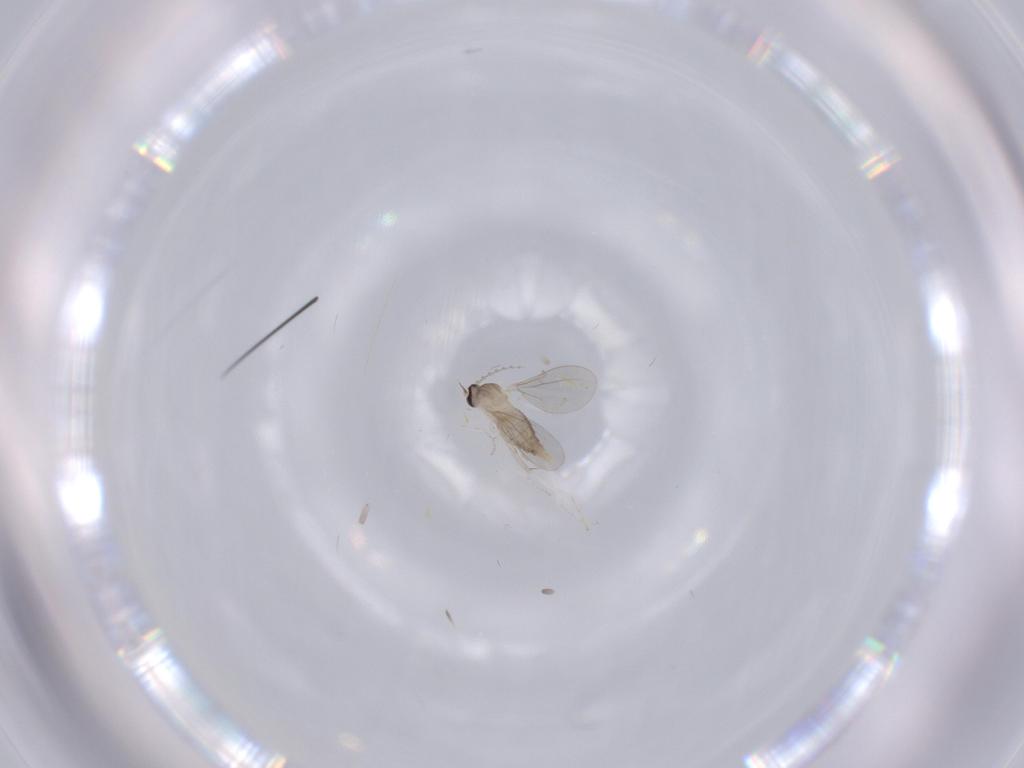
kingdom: Animalia
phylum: Arthropoda
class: Insecta
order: Diptera
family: Cecidomyiidae
